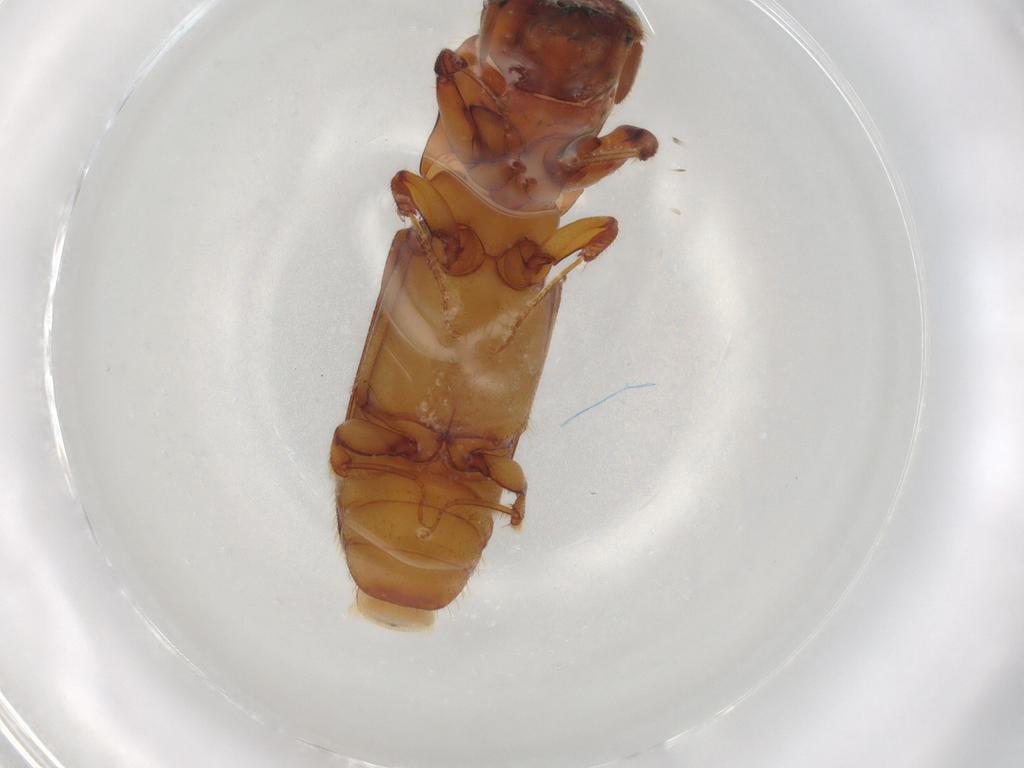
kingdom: Animalia
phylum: Arthropoda
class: Insecta
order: Coleoptera
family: Curculionidae
